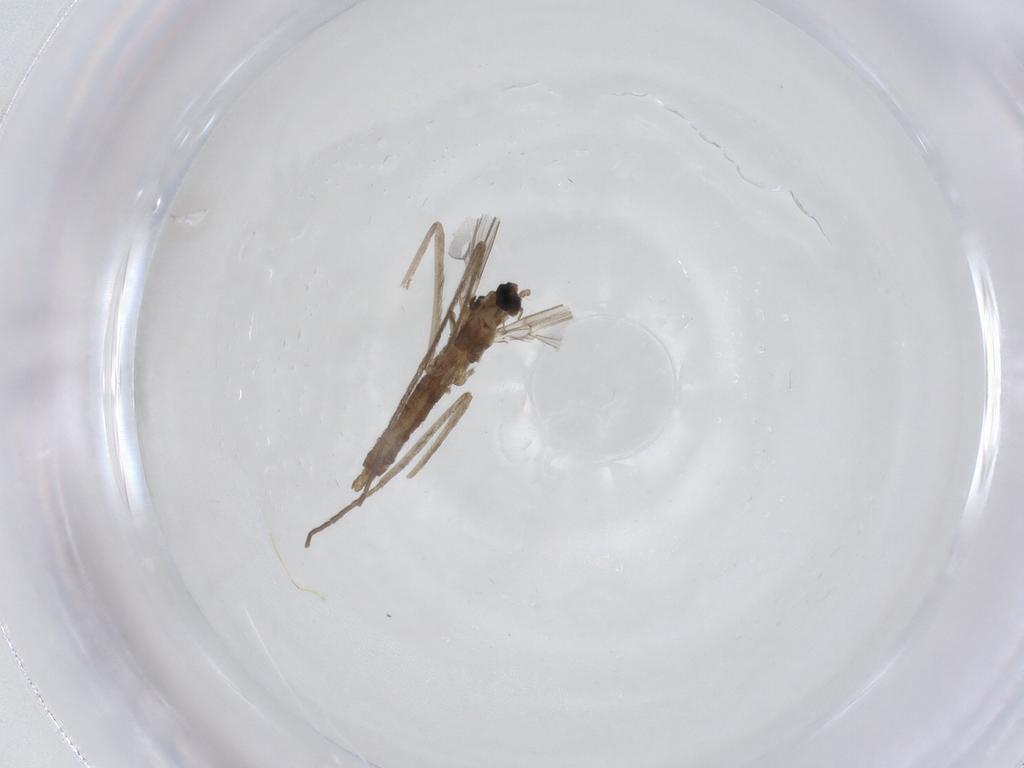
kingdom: Animalia
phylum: Arthropoda
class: Insecta
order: Diptera
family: Cecidomyiidae
